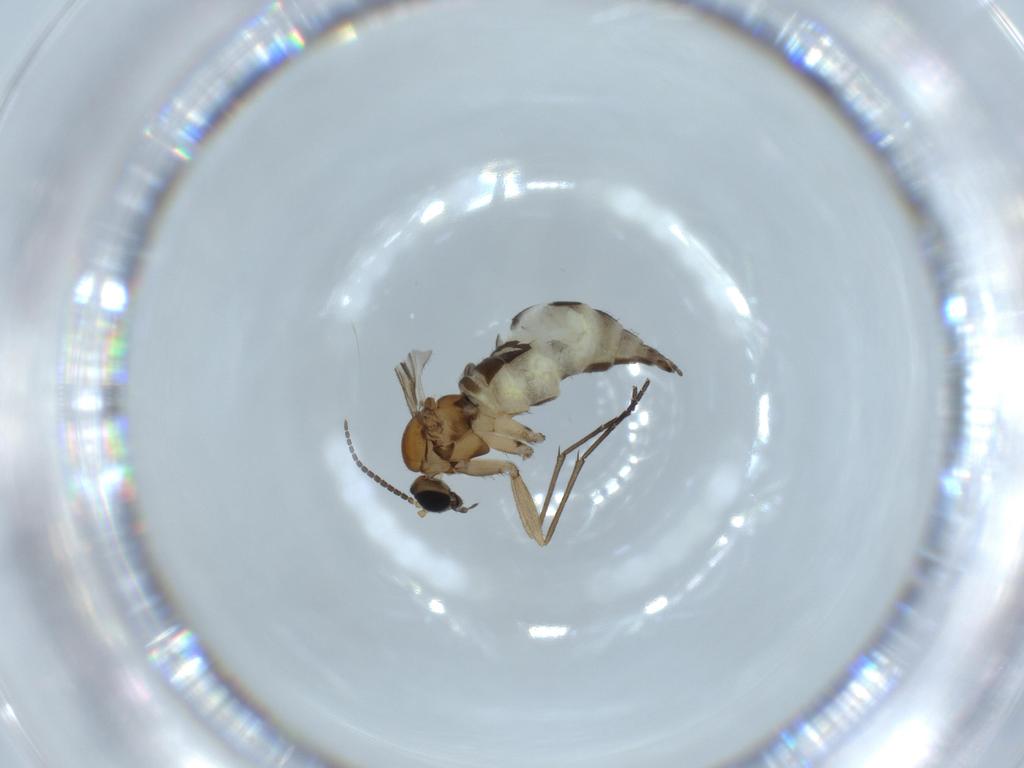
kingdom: Animalia
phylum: Arthropoda
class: Insecta
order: Diptera
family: Sciaridae
